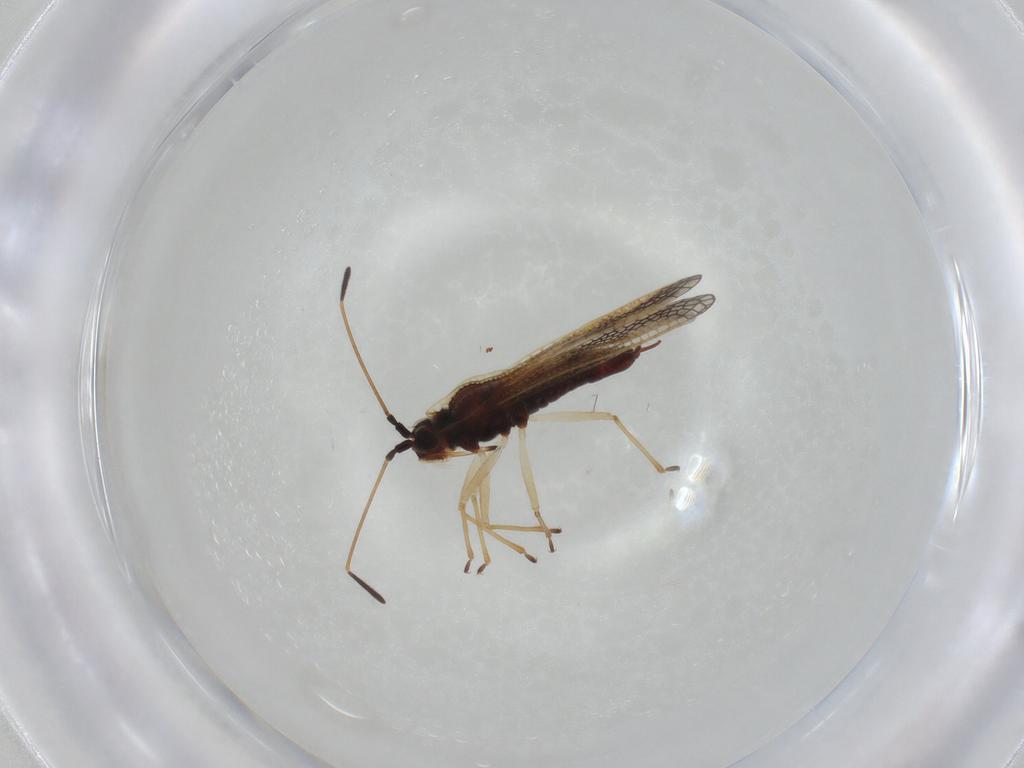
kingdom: Animalia
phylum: Arthropoda
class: Insecta
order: Hemiptera
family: Tingidae
